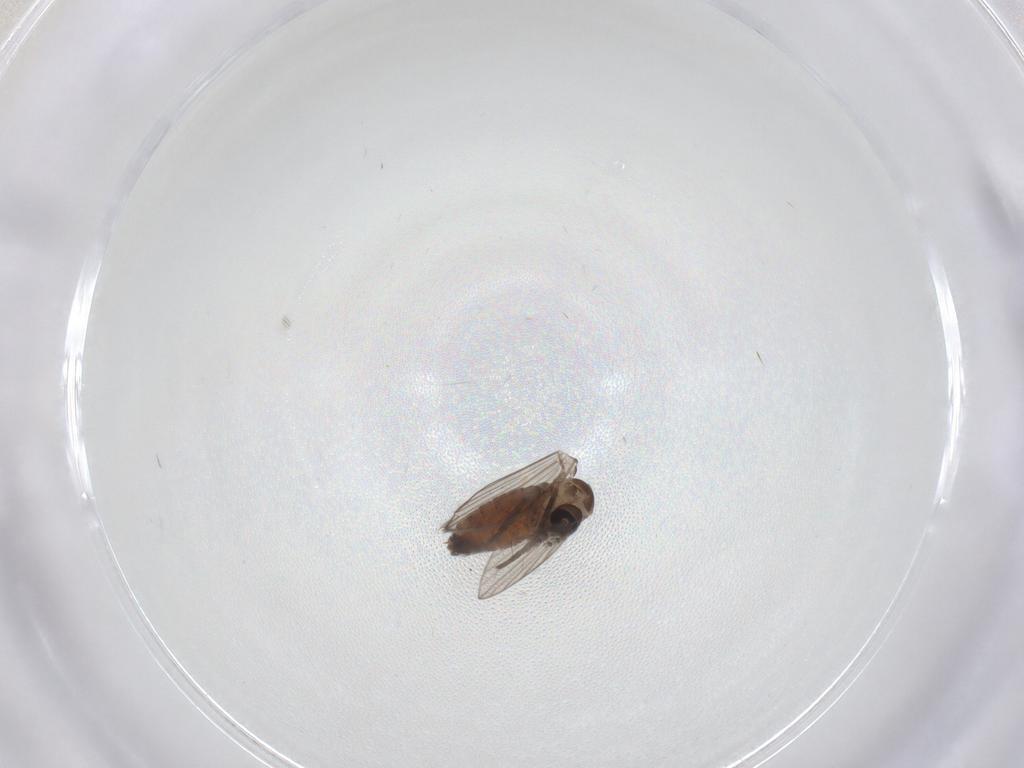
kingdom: Animalia
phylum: Arthropoda
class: Insecta
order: Diptera
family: Psychodidae
